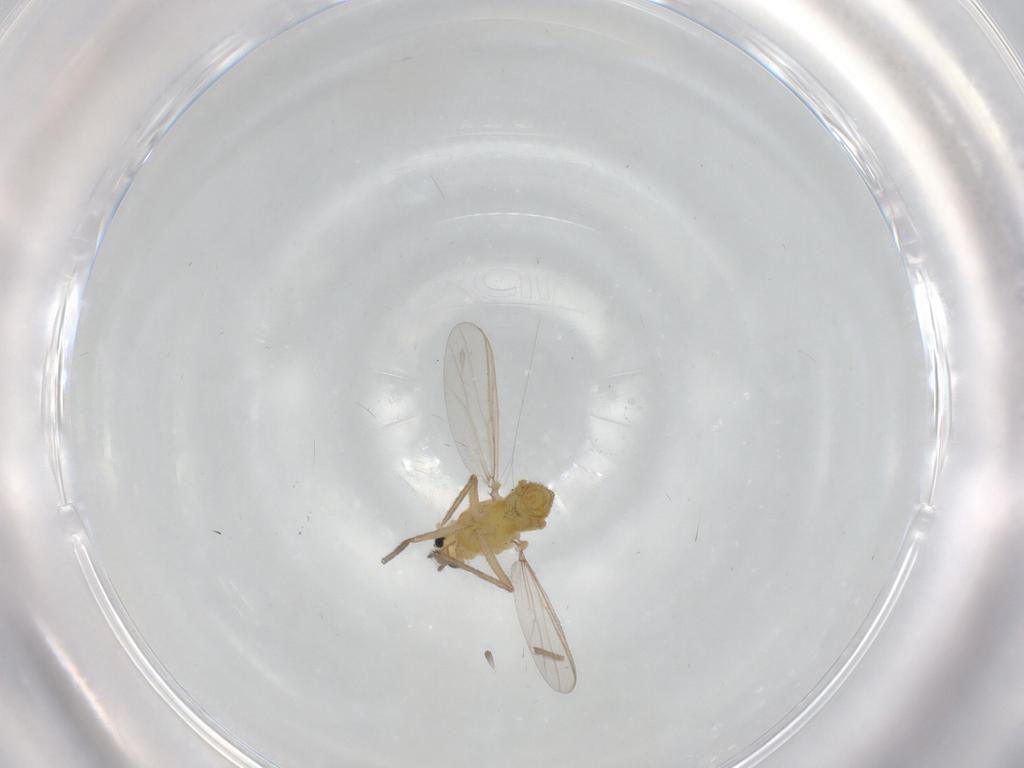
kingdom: Animalia
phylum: Arthropoda
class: Insecta
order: Diptera
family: Chironomidae
